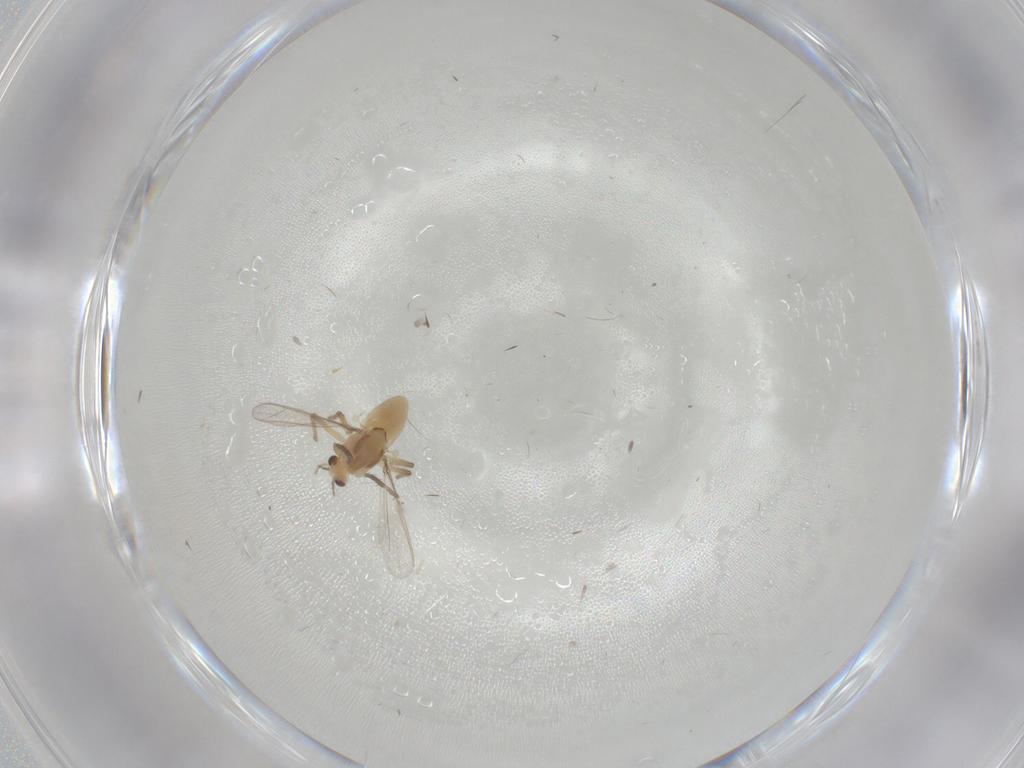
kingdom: Animalia
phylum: Arthropoda
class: Insecta
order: Diptera
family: Chironomidae
